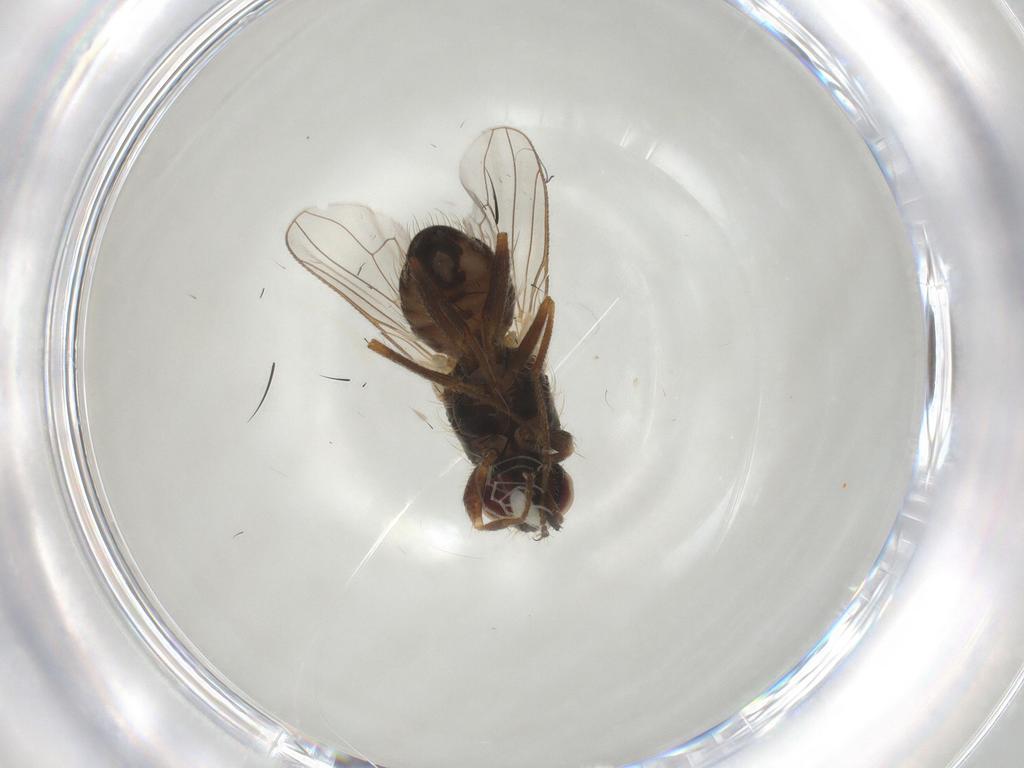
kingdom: Animalia
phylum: Arthropoda
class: Insecta
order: Diptera
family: Muscidae
